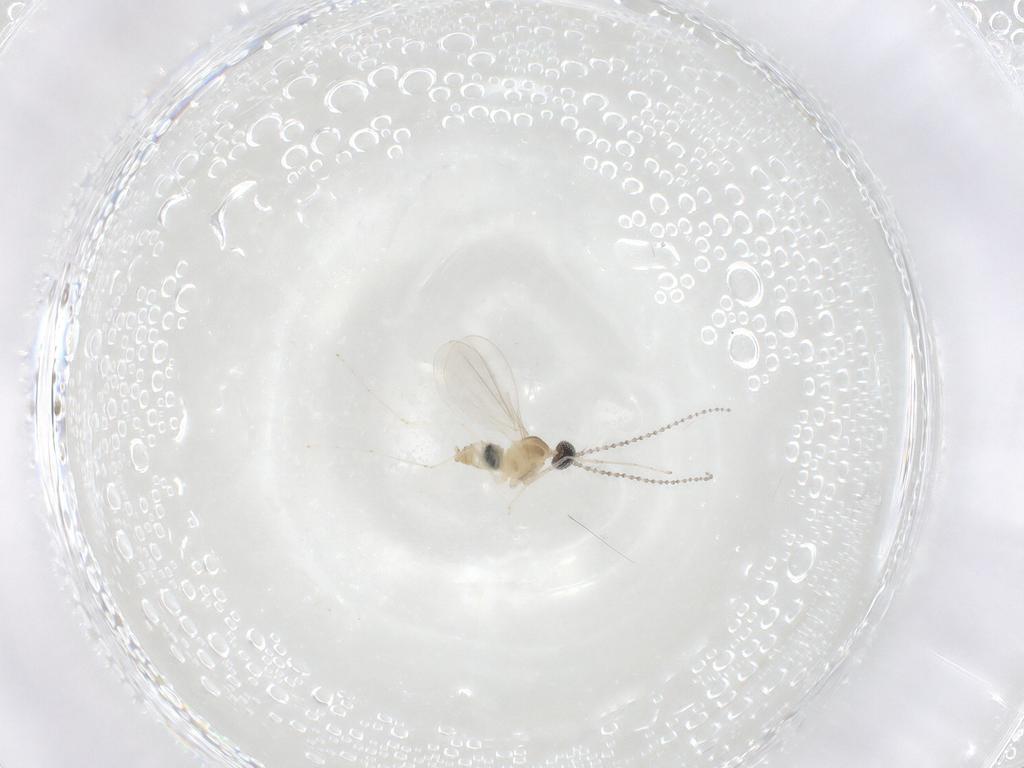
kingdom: Animalia
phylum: Arthropoda
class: Insecta
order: Diptera
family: Cecidomyiidae
